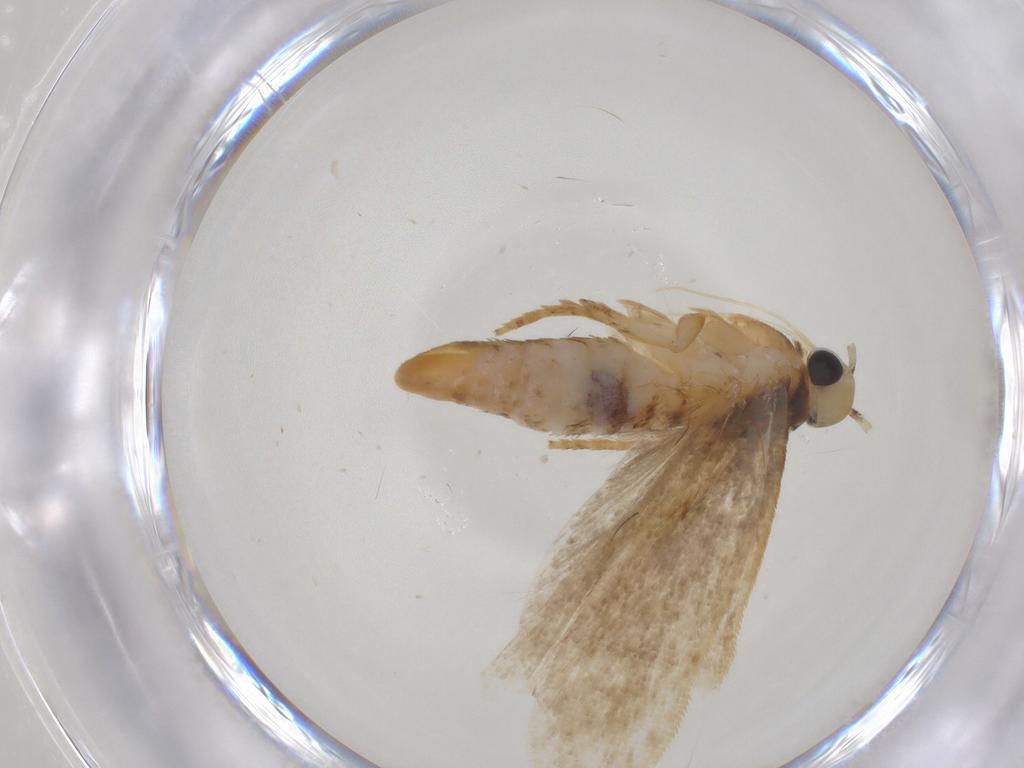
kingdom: Animalia
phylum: Arthropoda
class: Insecta
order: Lepidoptera
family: Gelechiidae
